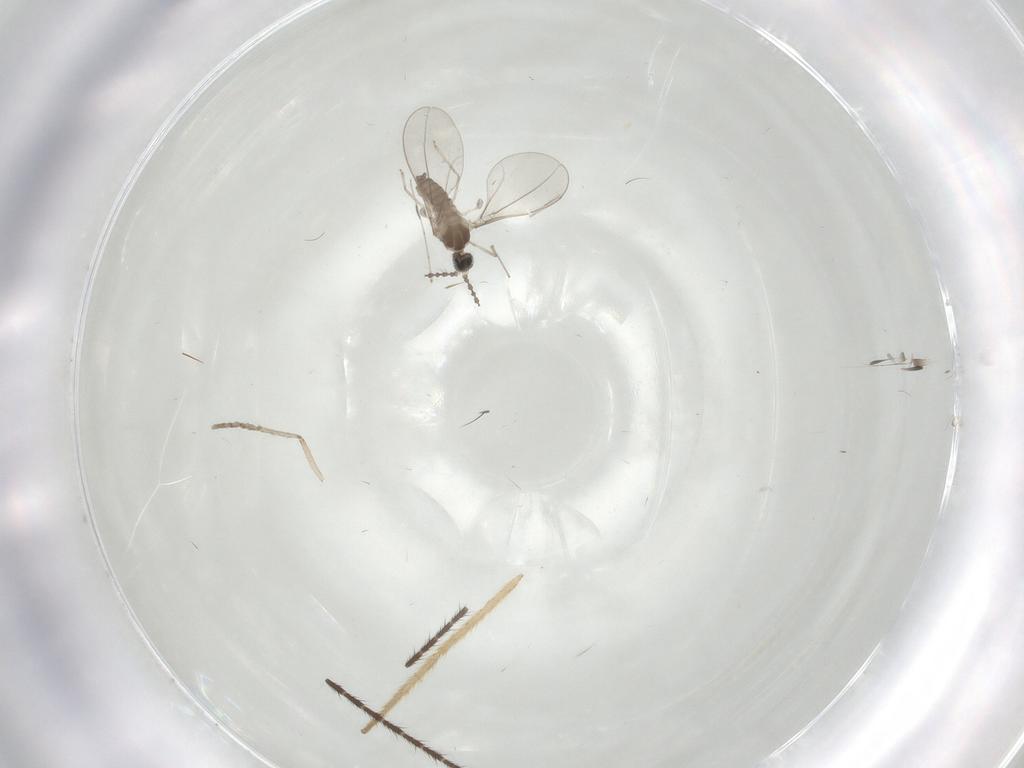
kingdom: Animalia
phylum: Arthropoda
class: Insecta
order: Diptera
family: Cecidomyiidae
